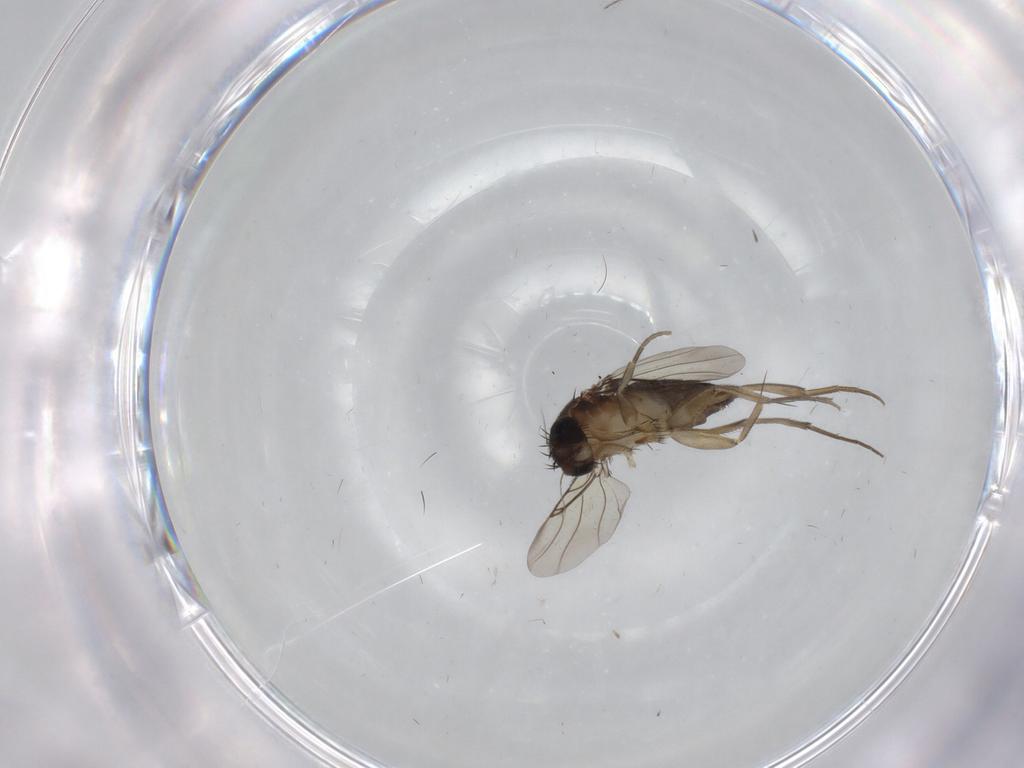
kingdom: Animalia
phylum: Arthropoda
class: Insecta
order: Diptera
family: Phoridae
